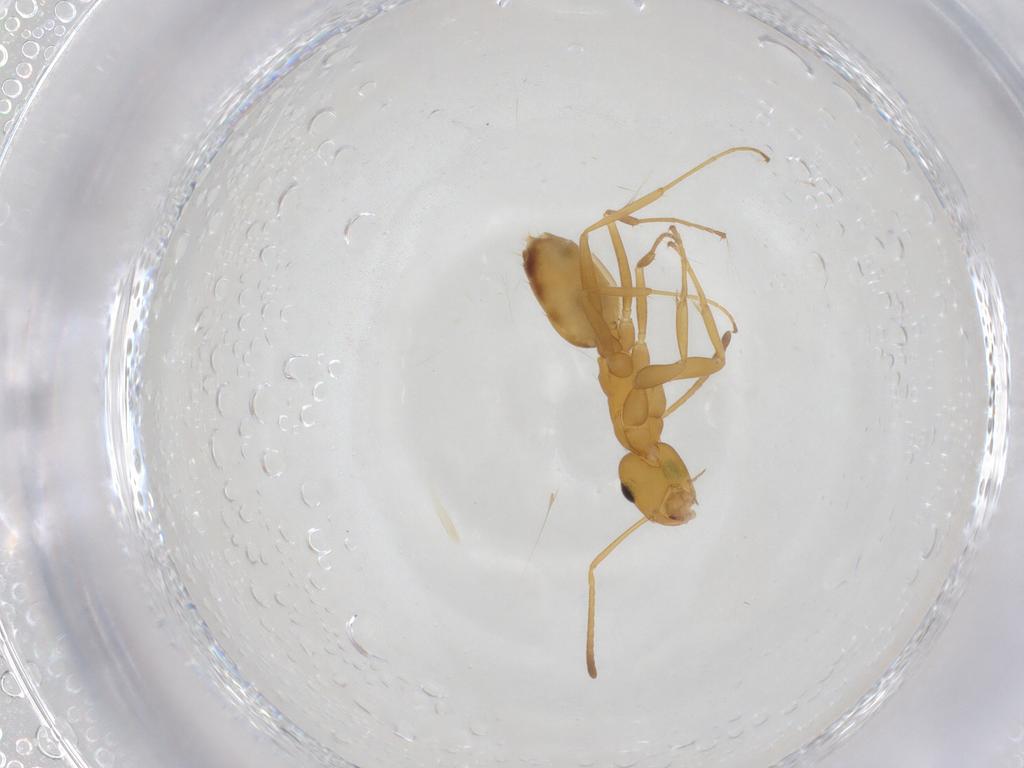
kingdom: Animalia
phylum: Arthropoda
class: Insecta
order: Hymenoptera
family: Formicidae
